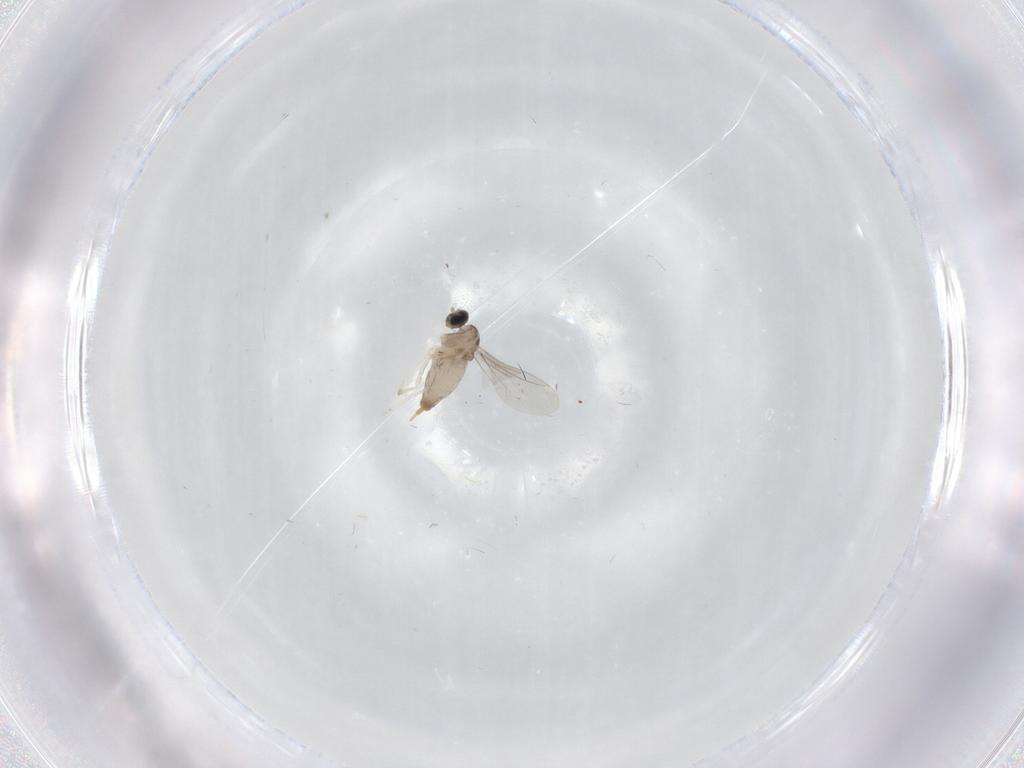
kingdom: Animalia
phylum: Arthropoda
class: Insecta
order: Diptera
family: Cecidomyiidae
